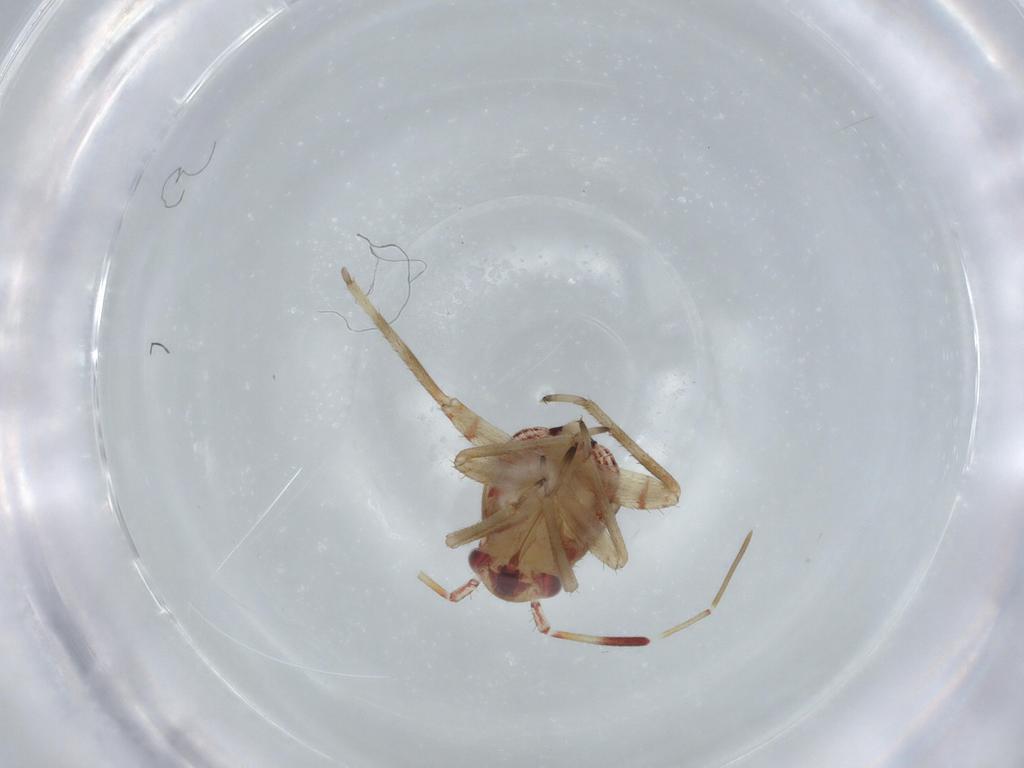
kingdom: Animalia
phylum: Arthropoda
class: Insecta
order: Hemiptera
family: Miridae
